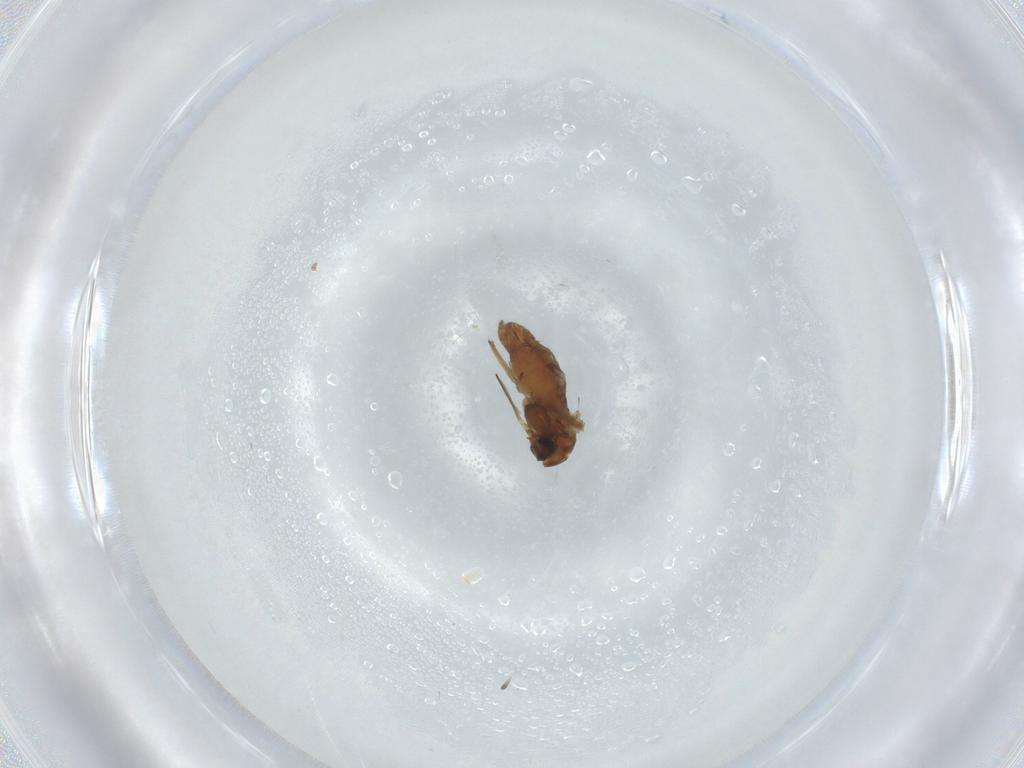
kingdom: Animalia
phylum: Arthropoda
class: Insecta
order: Diptera
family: Chironomidae
